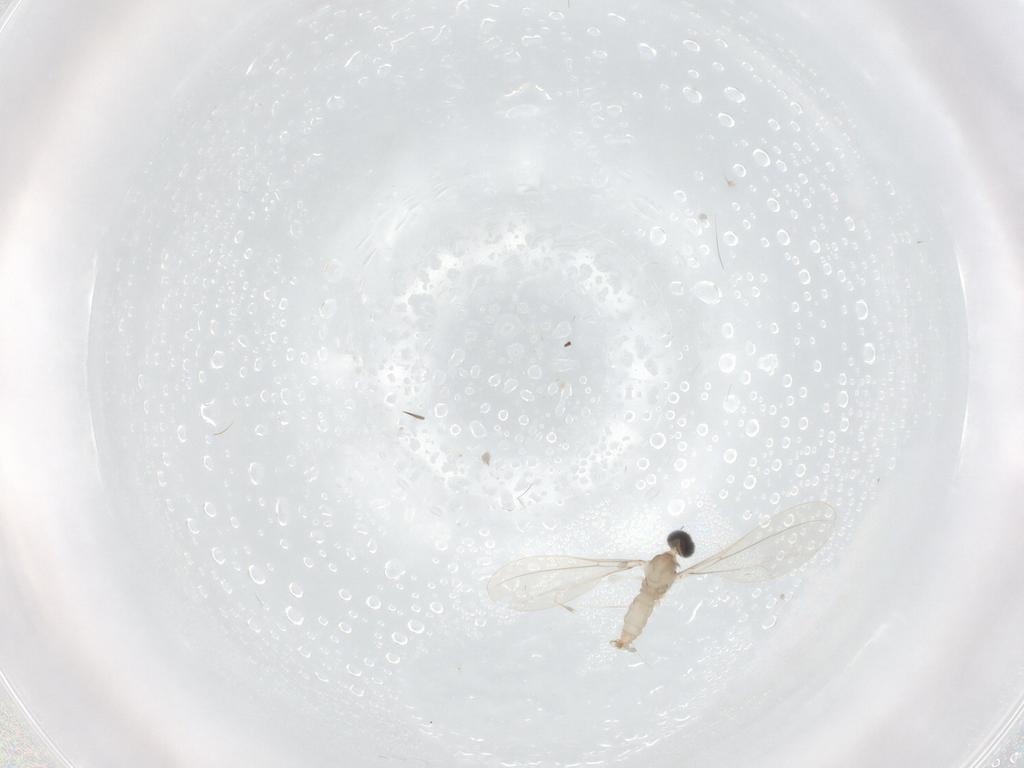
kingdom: Animalia
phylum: Arthropoda
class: Insecta
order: Diptera
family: Cecidomyiidae
